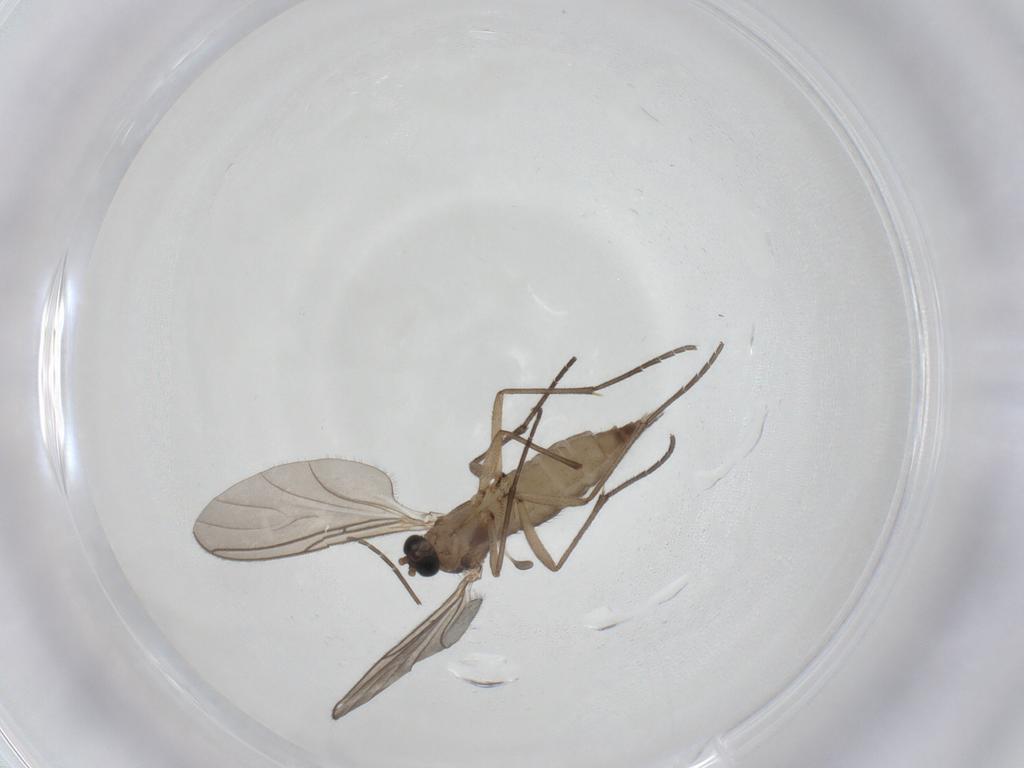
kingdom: Animalia
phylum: Arthropoda
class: Insecta
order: Diptera
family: Sciaridae
